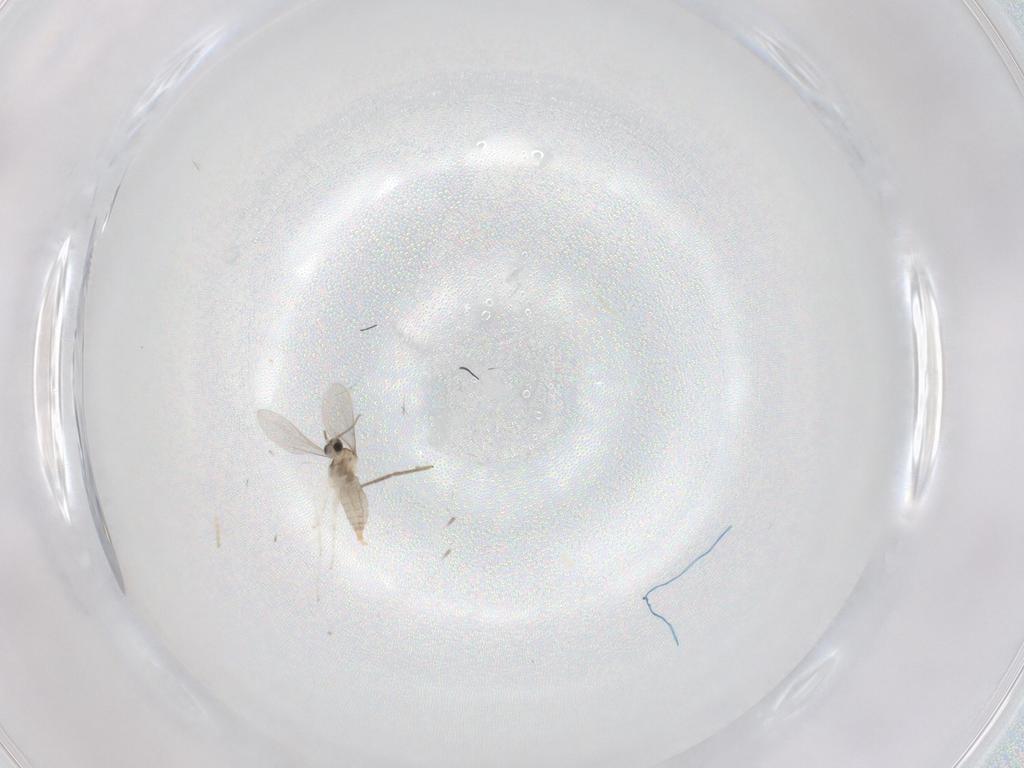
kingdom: Animalia
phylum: Arthropoda
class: Insecta
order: Diptera
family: Chironomidae
